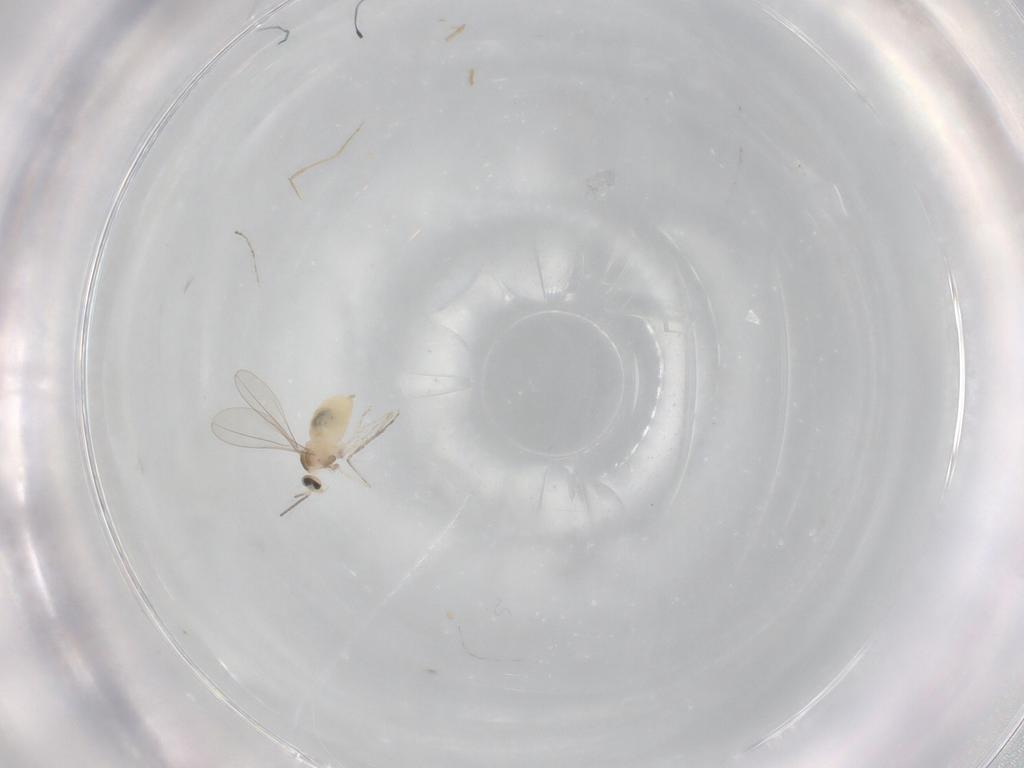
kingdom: Animalia
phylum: Arthropoda
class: Insecta
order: Diptera
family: Cecidomyiidae
